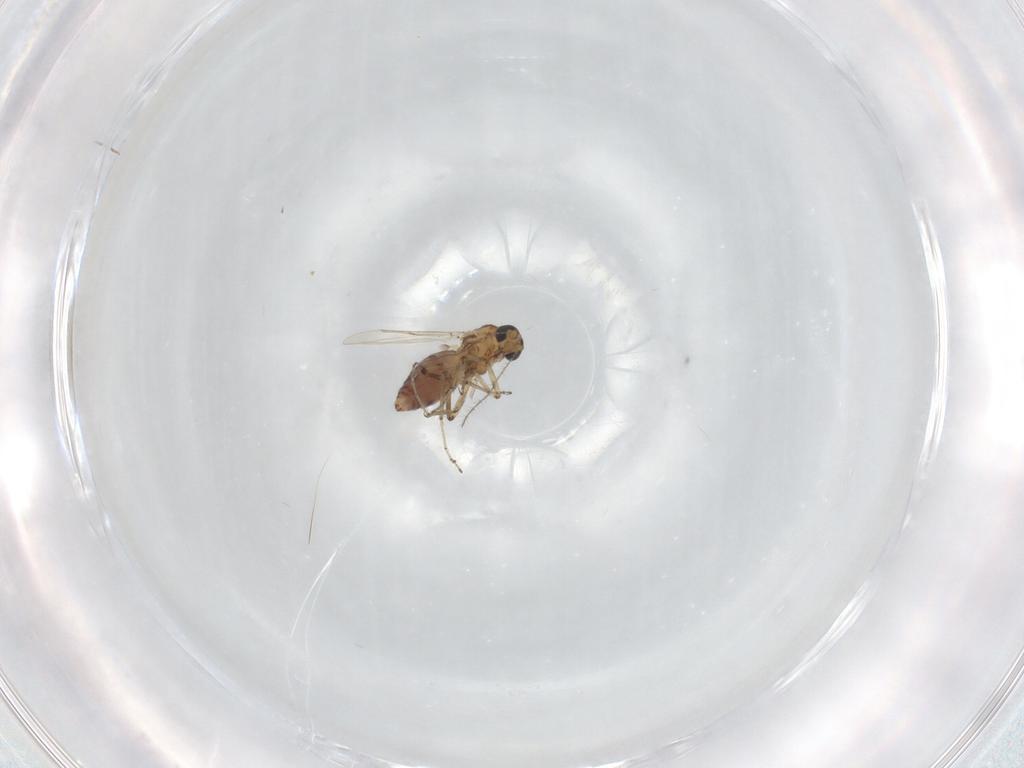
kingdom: Animalia
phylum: Arthropoda
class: Insecta
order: Diptera
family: Ceratopogonidae
